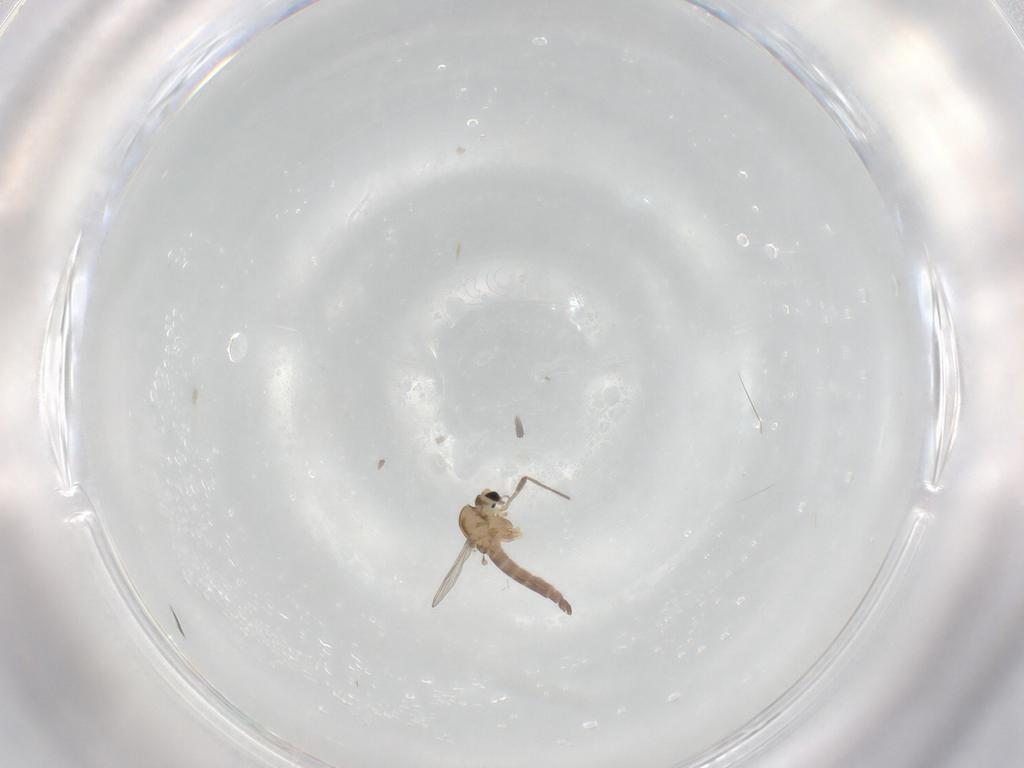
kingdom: Animalia
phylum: Arthropoda
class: Insecta
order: Diptera
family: Chironomidae
